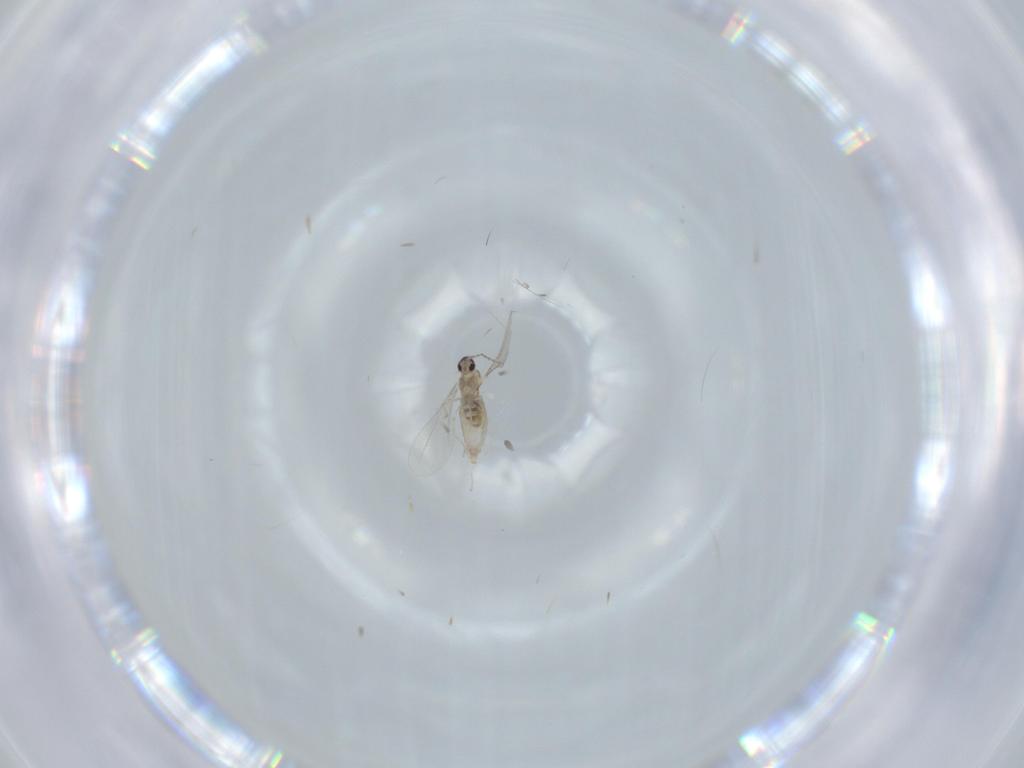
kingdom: Animalia
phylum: Arthropoda
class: Insecta
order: Diptera
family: Cecidomyiidae
